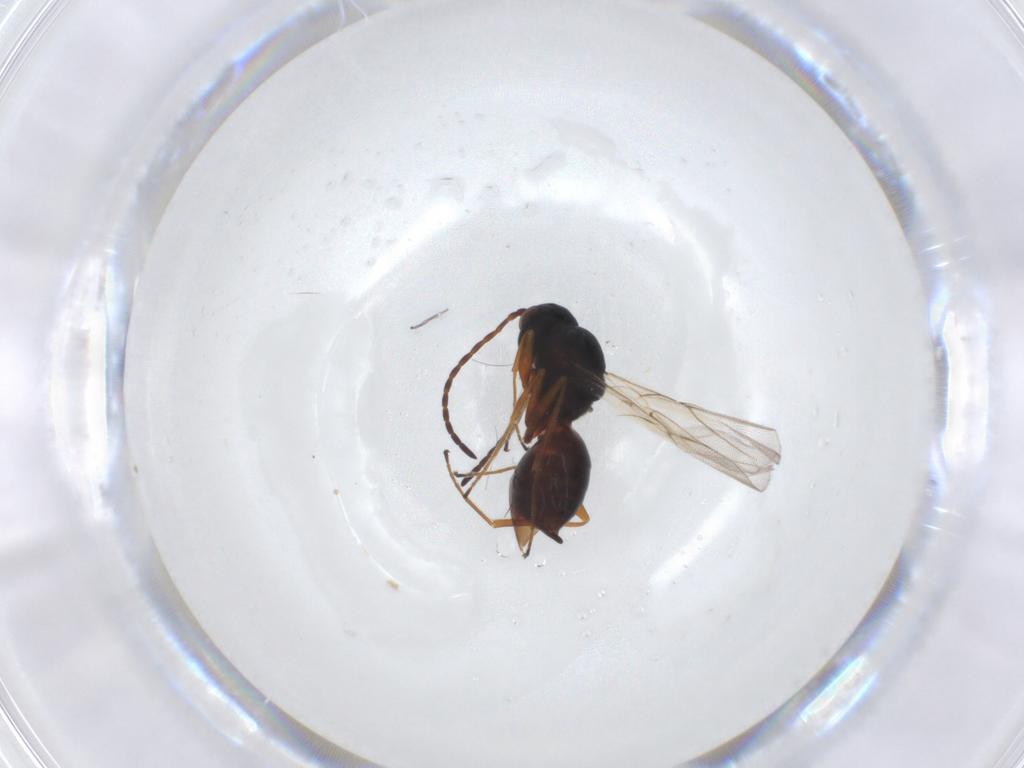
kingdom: Animalia
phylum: Arthropoda
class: Insecta
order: Hymenoptera
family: Cynipidae
